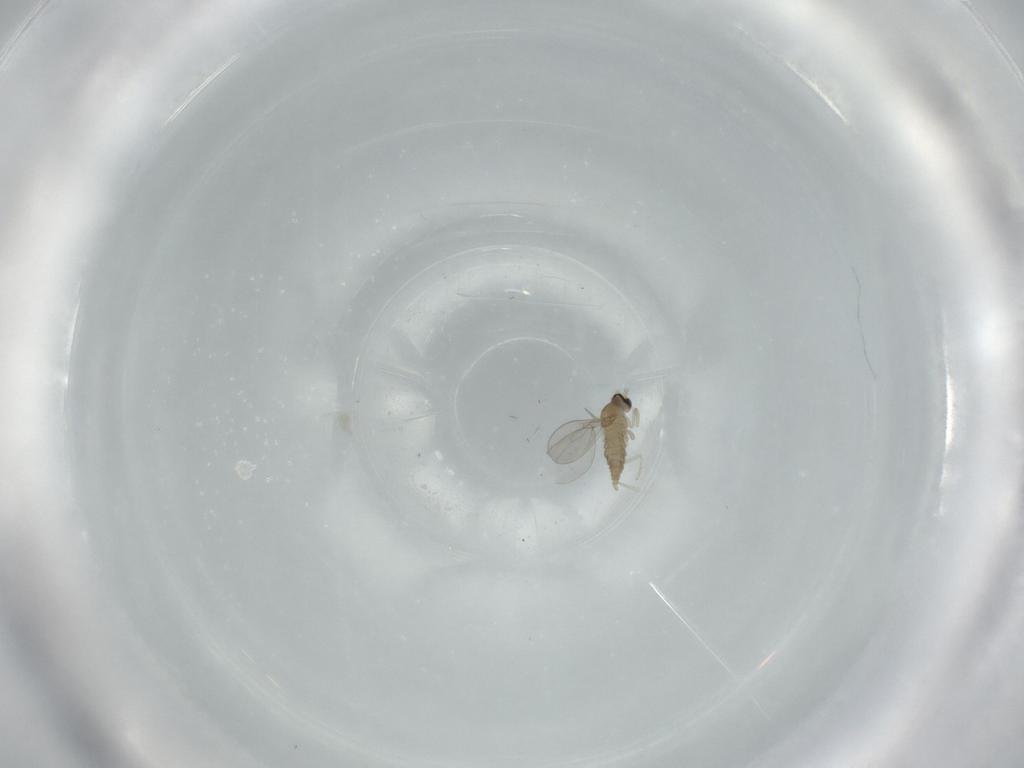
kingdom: Animalia
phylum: Arthropoda
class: Insecta
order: Diptera
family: Cecidomyiidae
